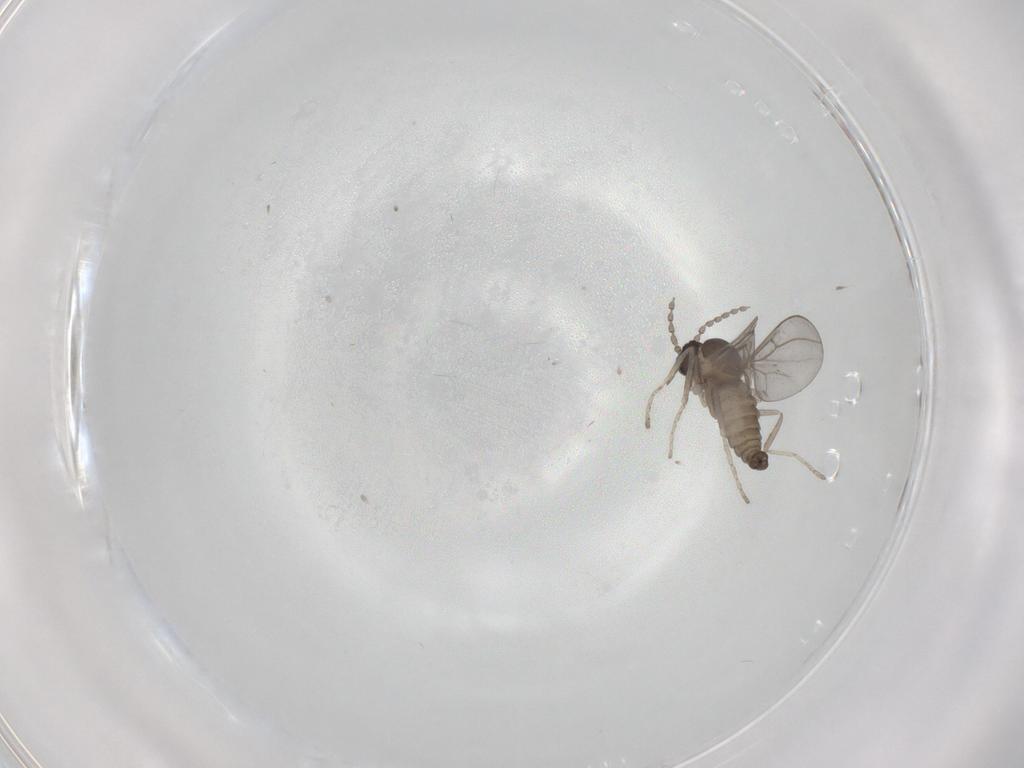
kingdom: Animalia
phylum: Arthropoda
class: Insecta
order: Diptera
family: Cecidomyiidae
